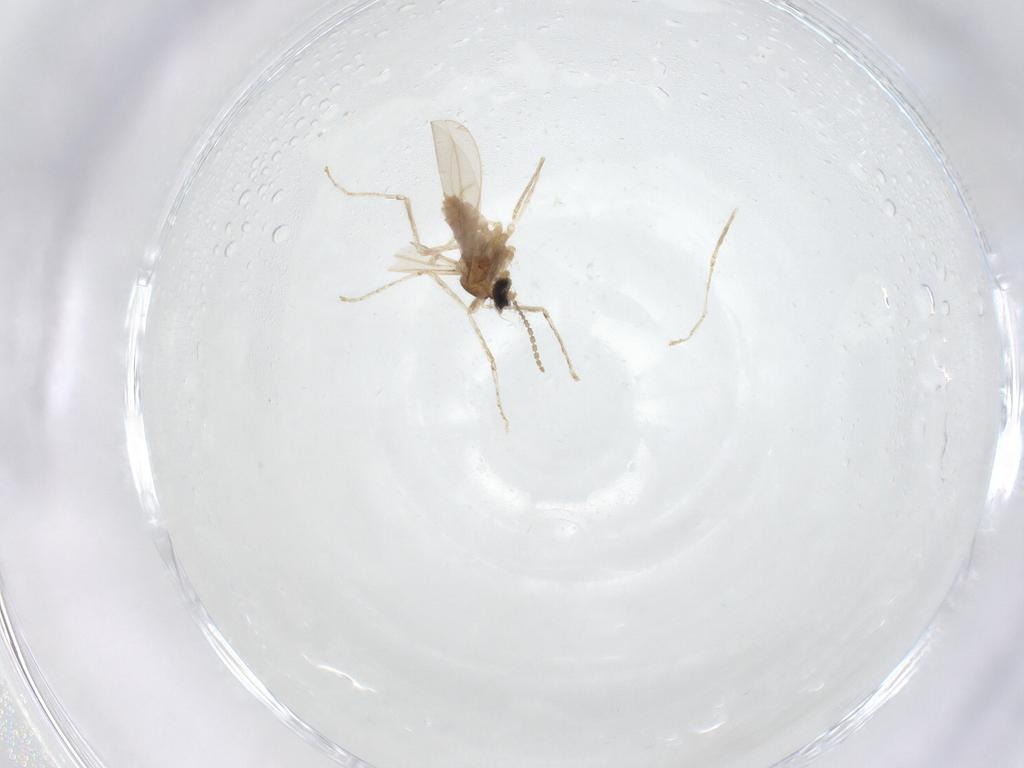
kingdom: Animalia
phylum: Arthropoda
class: Insecta
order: Diptera
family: Cecidomyiidae
